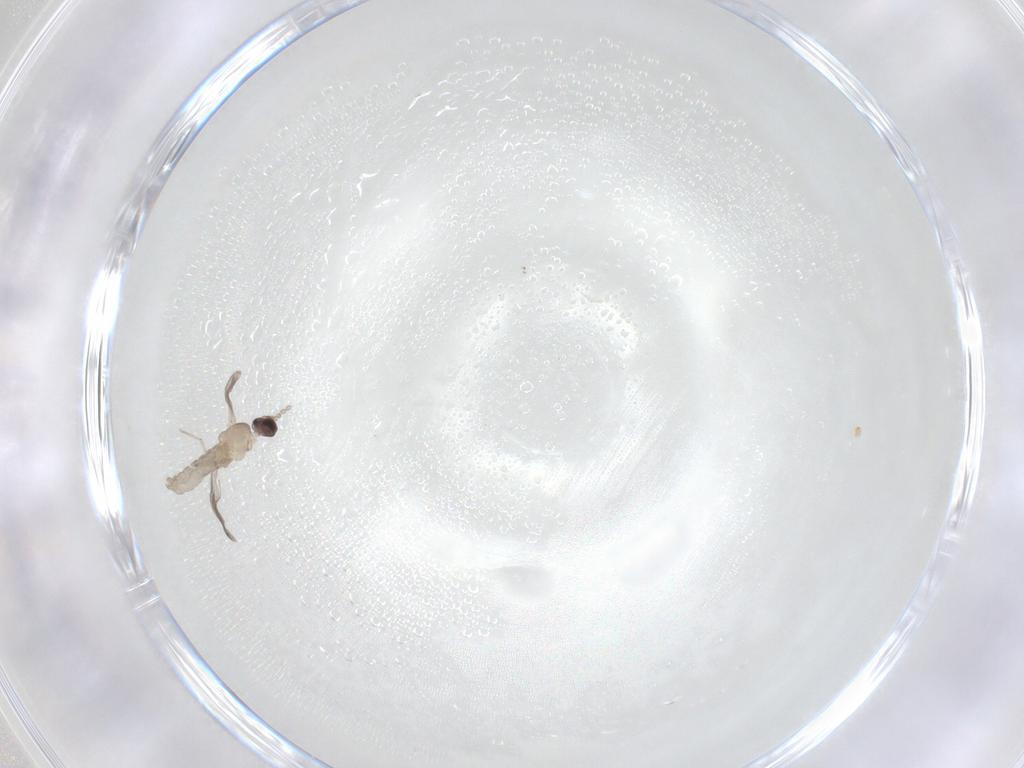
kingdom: Animalia
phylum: Arthropoda
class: Insecta
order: Diptera
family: Cecidomyiidae
